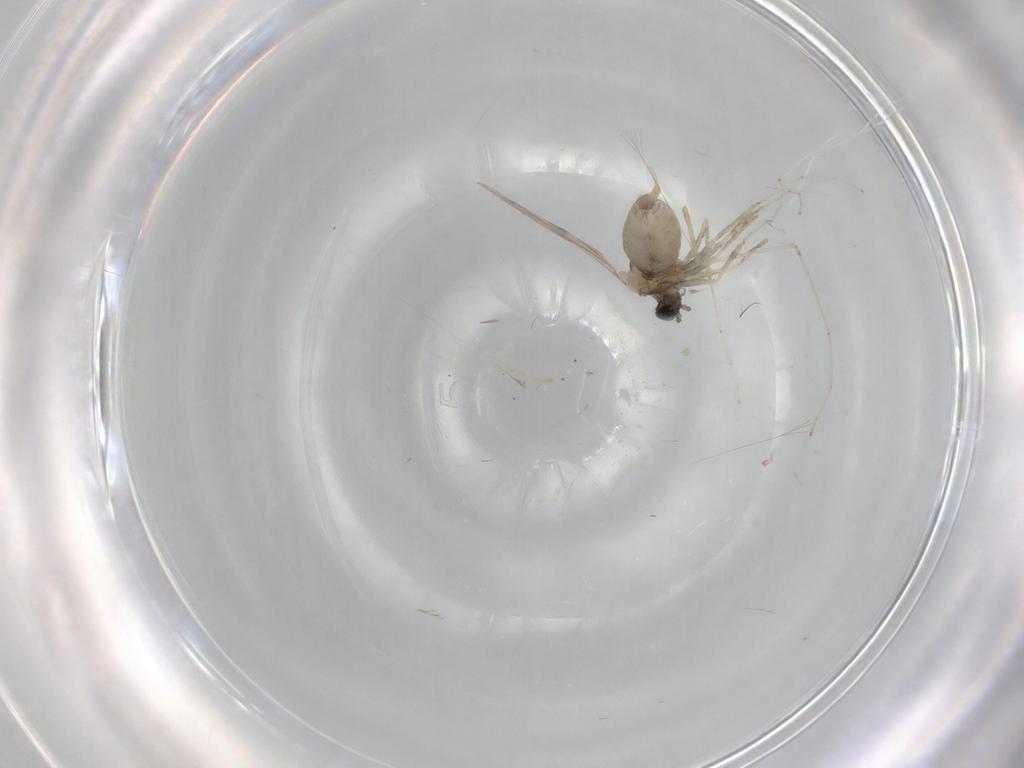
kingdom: Animalia
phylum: Arthropoda
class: Insecta
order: Diptera
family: Cecidomyiidae
